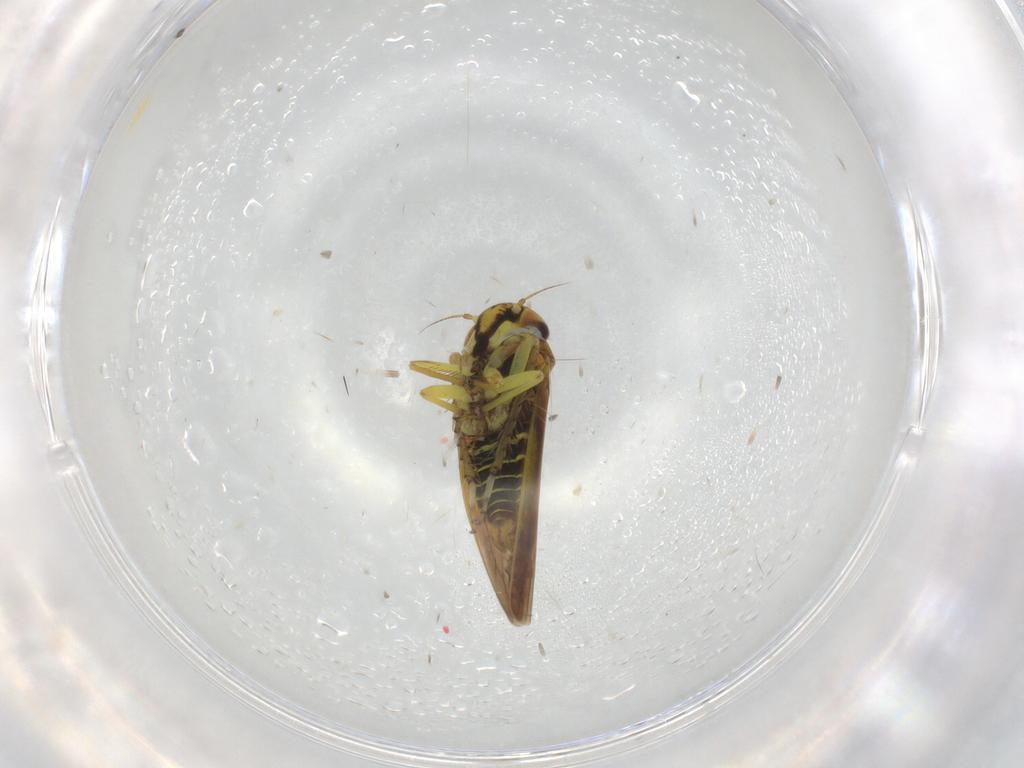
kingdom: Animalia
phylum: Arthropoda
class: Insecta
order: Hemiptera
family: Cicadellidae
